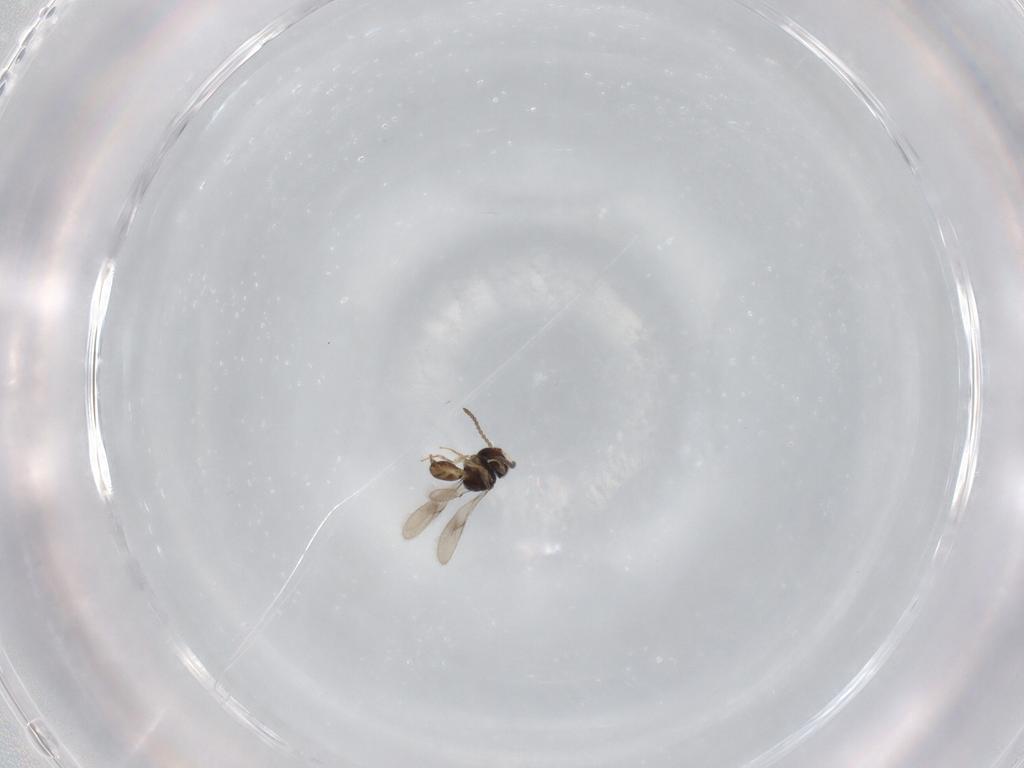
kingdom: Animalia
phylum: Arthropoda
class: Insecta
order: Hymenoptera
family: Scelionidae
